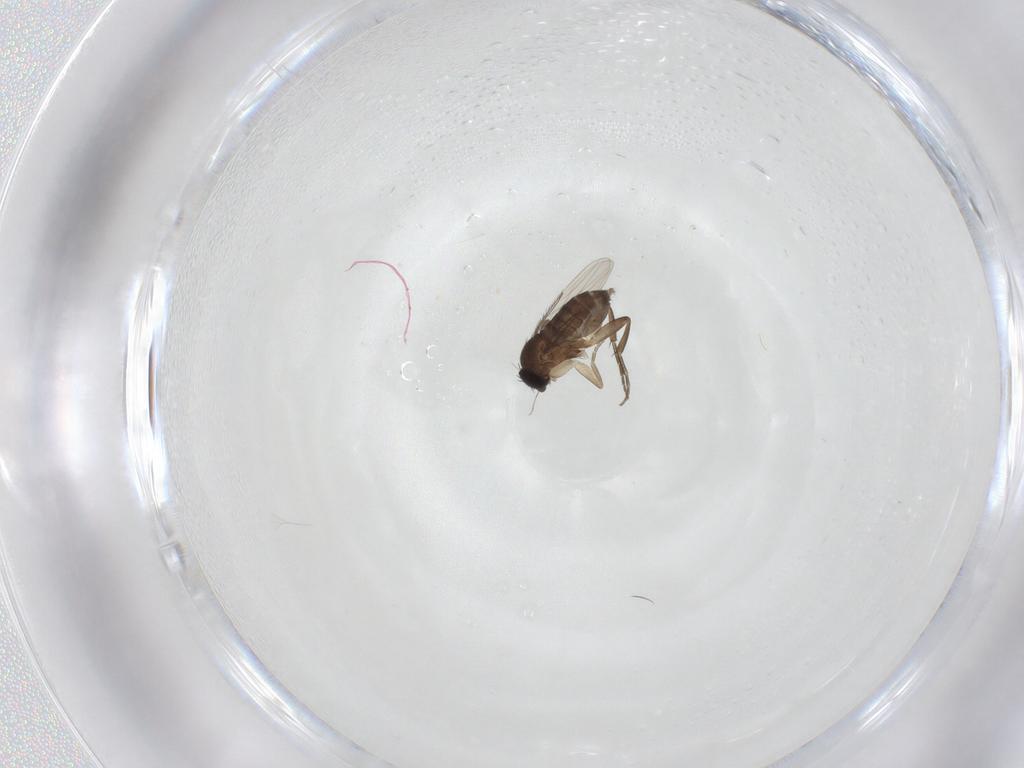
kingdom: Animalia
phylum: Arthropoda
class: Insecta
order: Diptera
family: Phoridae
